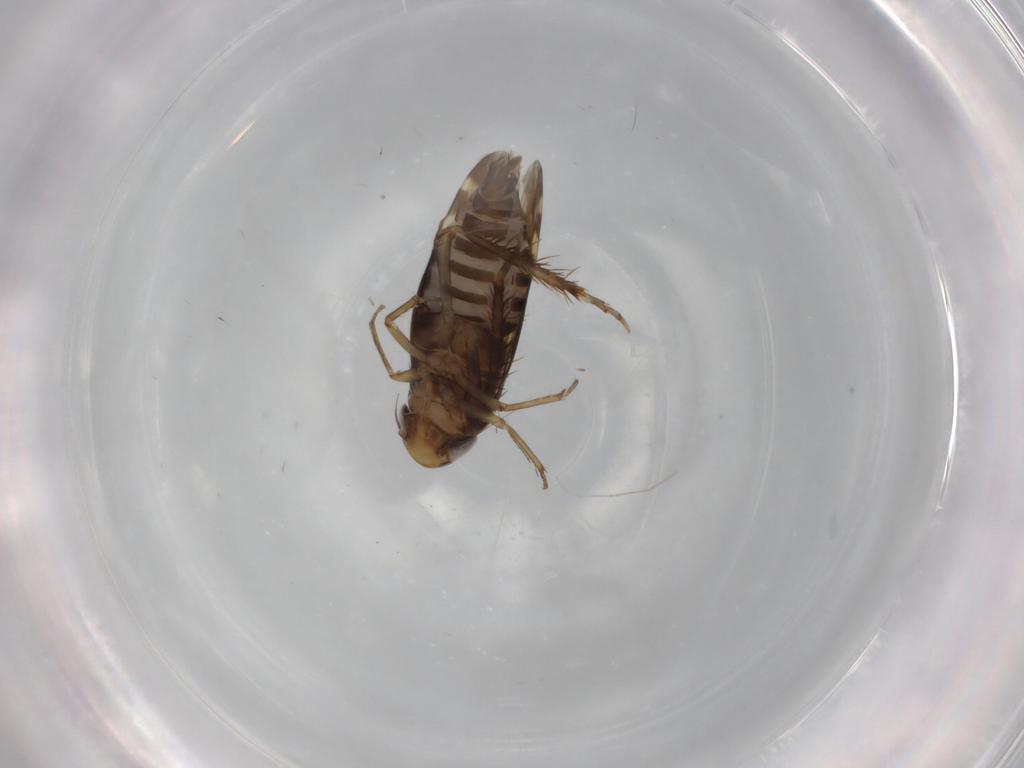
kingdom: Animalia
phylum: Arthropoda
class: Insecta
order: Hemiptera
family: Cicadellidae
